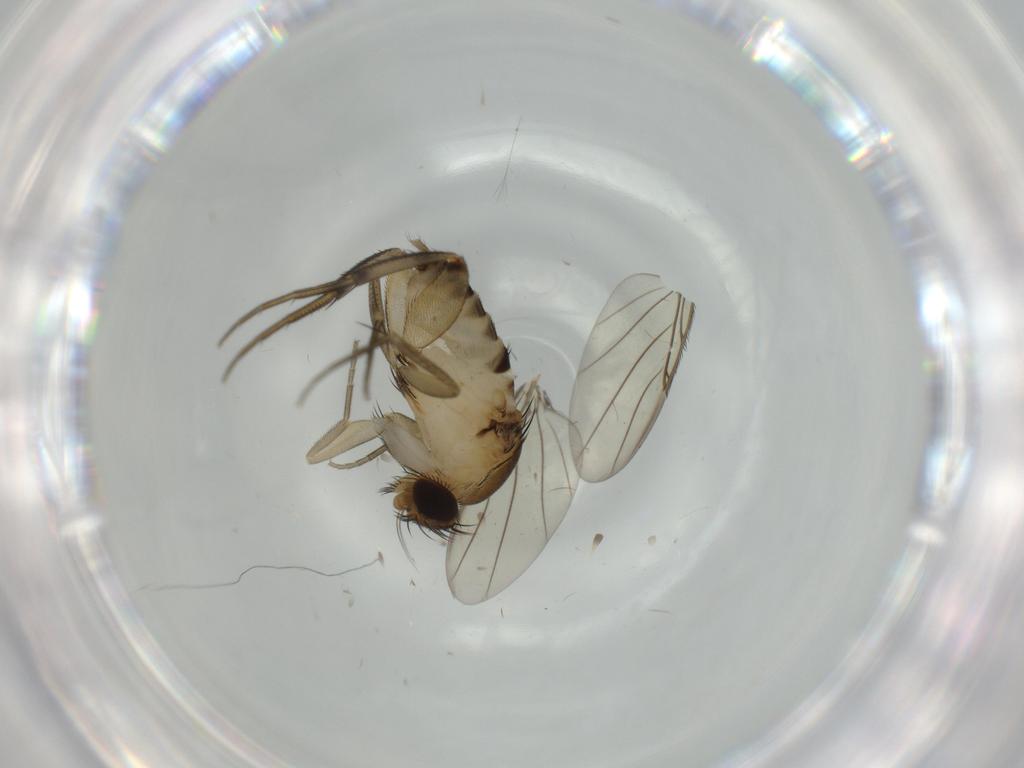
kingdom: Animalia
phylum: Arthropoda
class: Insecta
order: Diptera
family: Phoridae
